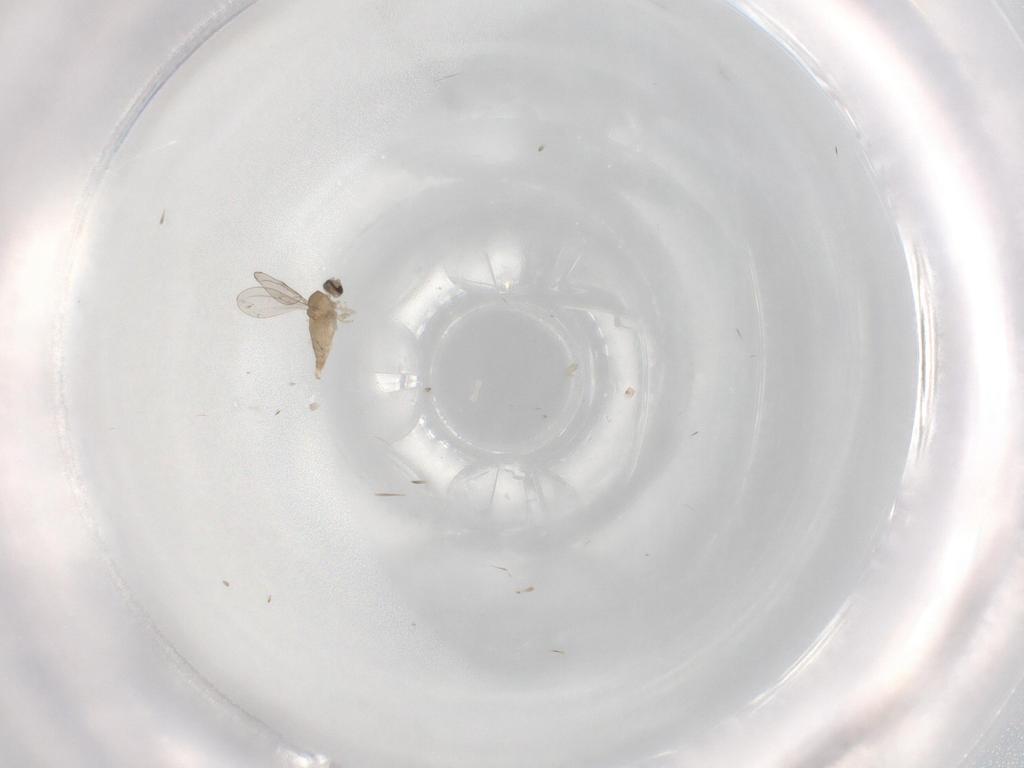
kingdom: Animalia
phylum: Arthropoda
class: Insecta
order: Diptera
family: Cecidomyiidae
